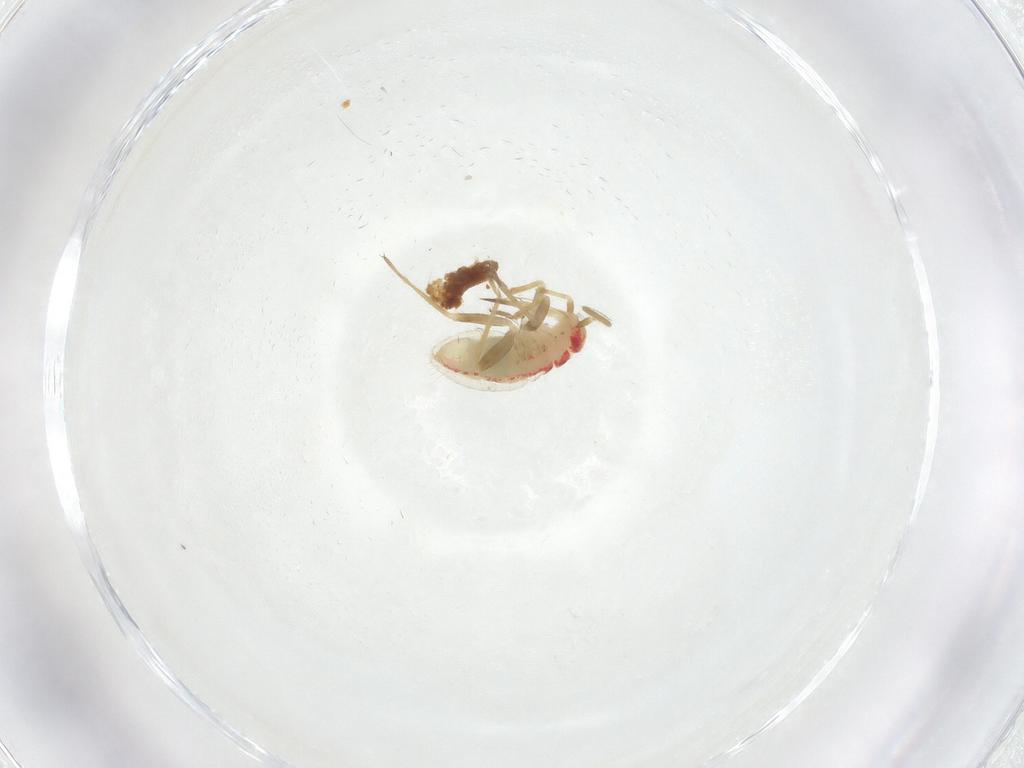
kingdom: Animalia
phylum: Arthropoda
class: Insecta
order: Hemiptera
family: Miridae
